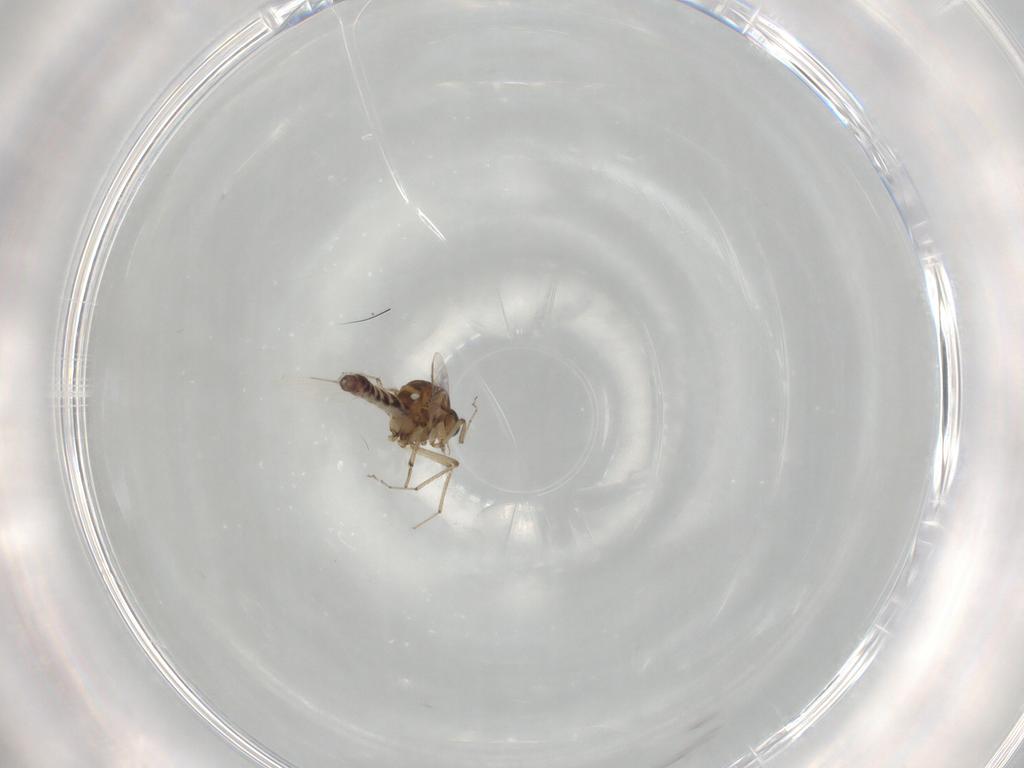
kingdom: Animalia
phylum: Arthropoda
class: Insecta
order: Diptera
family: Ceratopogonidae
